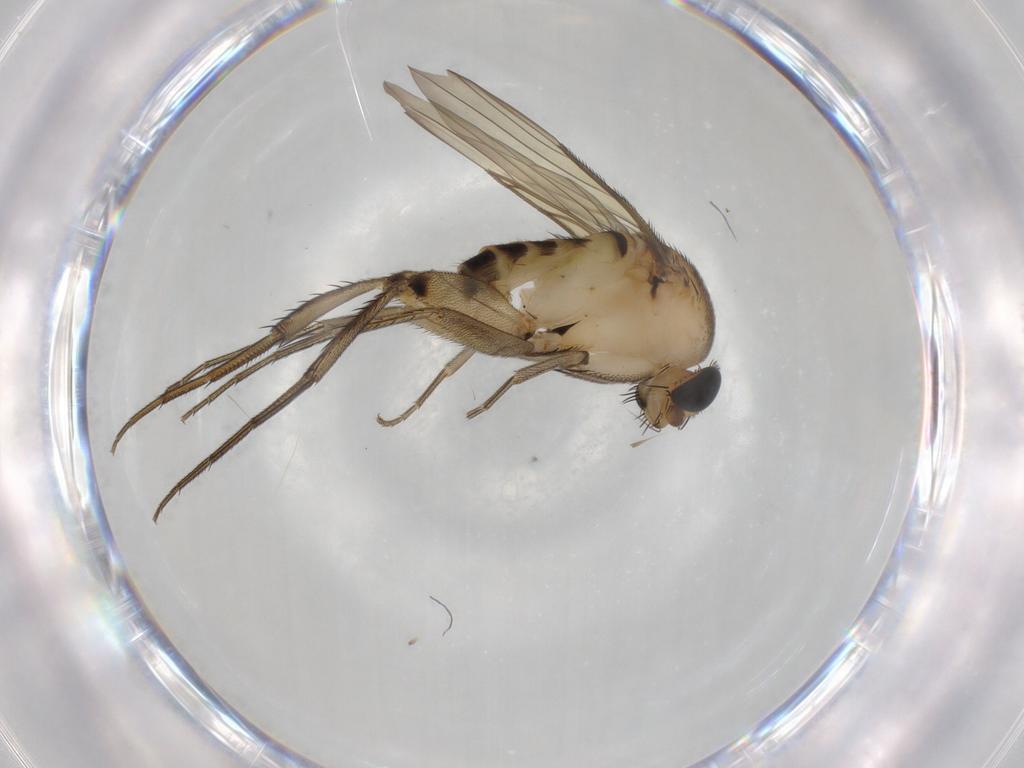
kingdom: Animalia
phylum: Arthropoda
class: Insecta
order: Diptera
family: Phoridae
